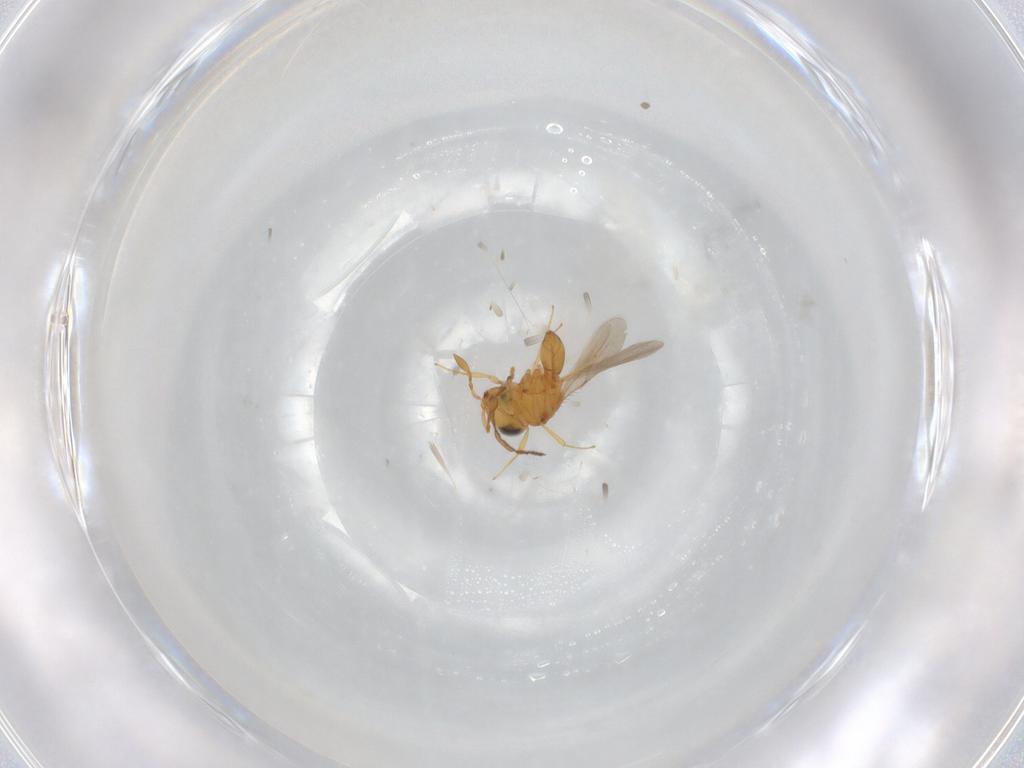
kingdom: Animalia
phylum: Arthropoda
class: Insecta
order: Hymenoptera
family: Scelionidae
